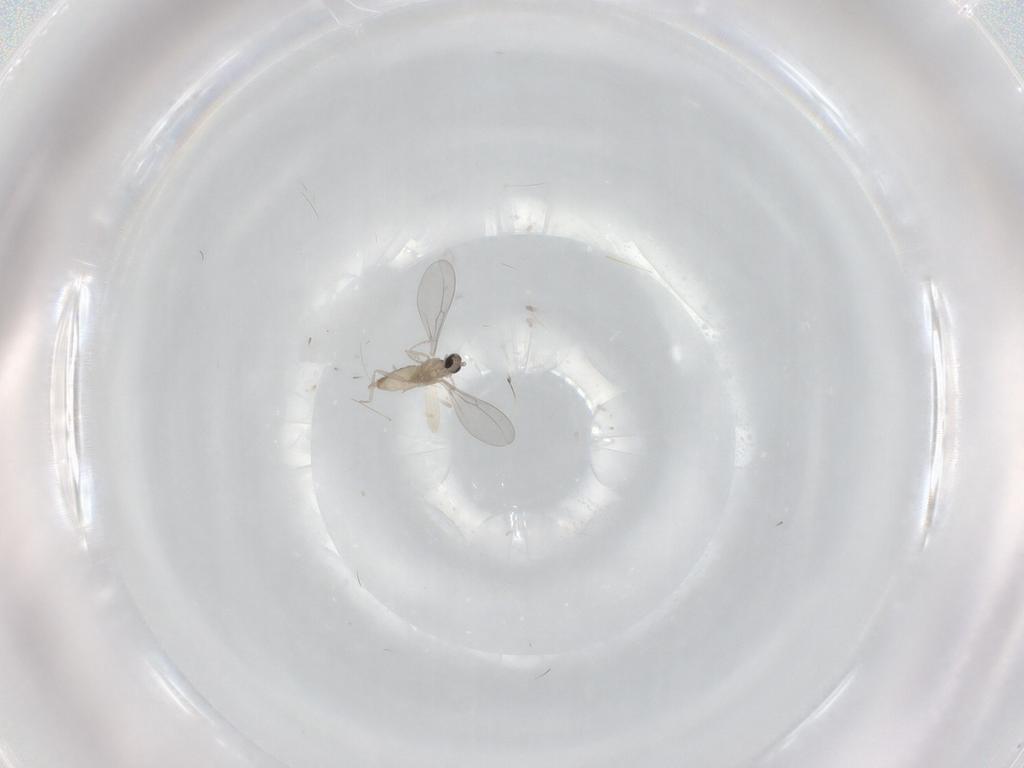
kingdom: Animalia
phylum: Arthropoda
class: Insecta
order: Diptera
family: Cecidomyiidae
